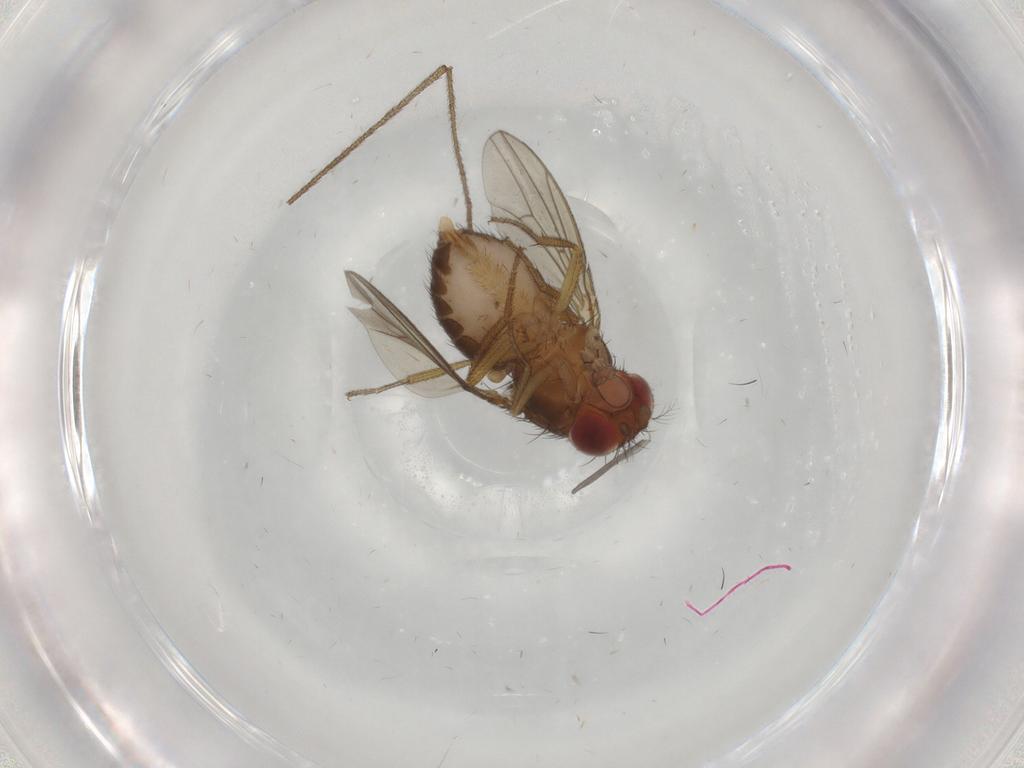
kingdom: Animalia
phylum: Arthropoda
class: Insecta
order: Diptera
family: Drosophilidae
